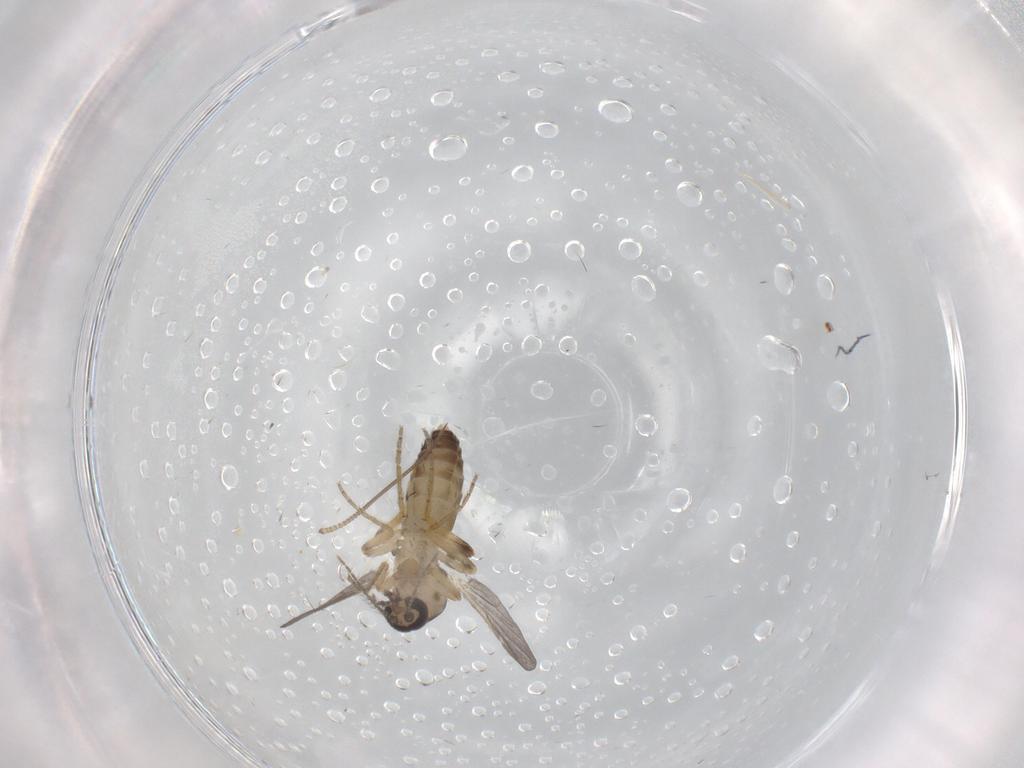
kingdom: Animalia
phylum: Arthropoda
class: Insecta
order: Diptera
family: Ceratopogonidae
